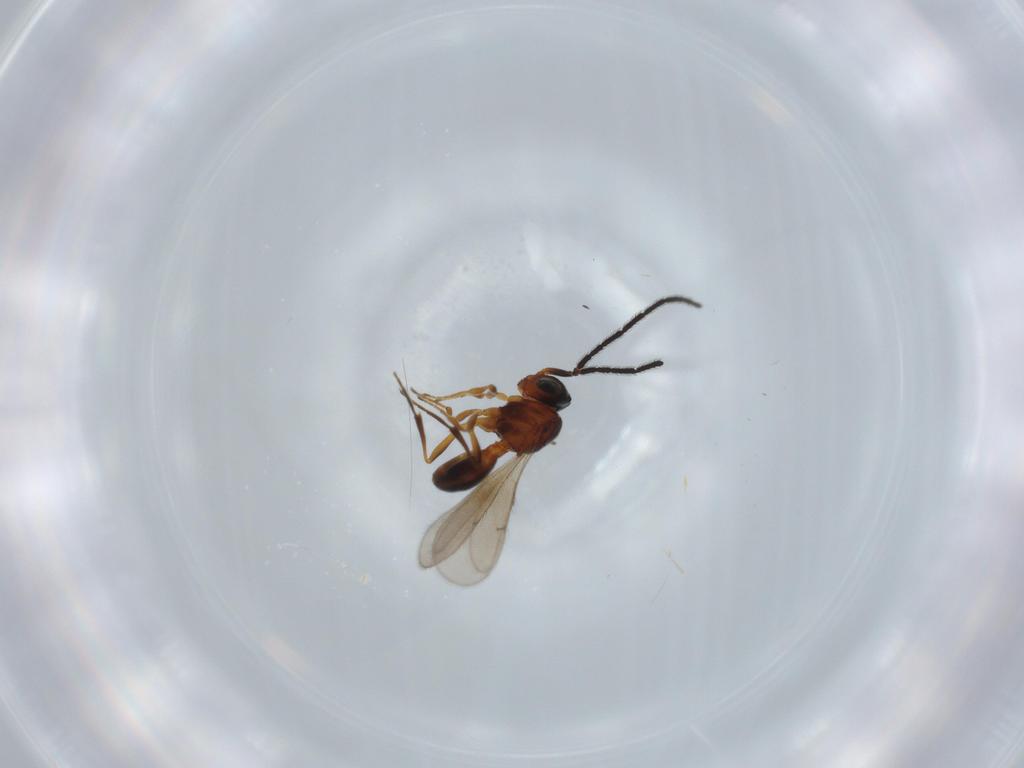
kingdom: Animalia
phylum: Arthropoda
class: Insecta
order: Hymenoptera
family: Scelionidae
